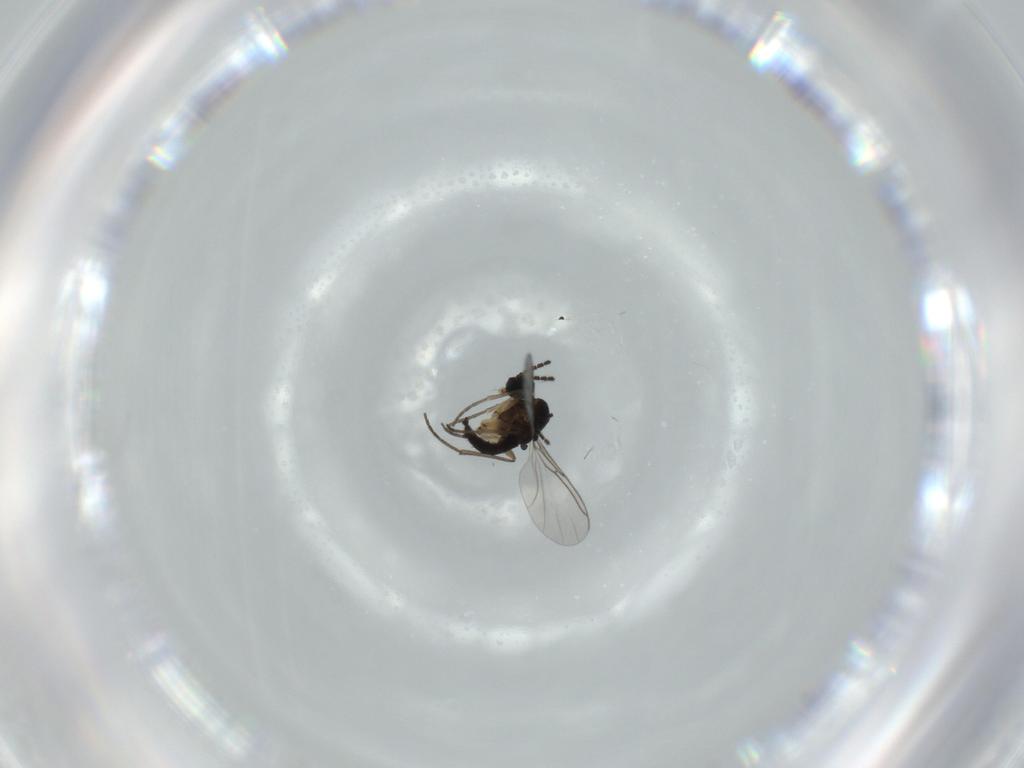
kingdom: Animalia
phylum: Arthropoda
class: Insecta
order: Diptera
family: Sciaridae
